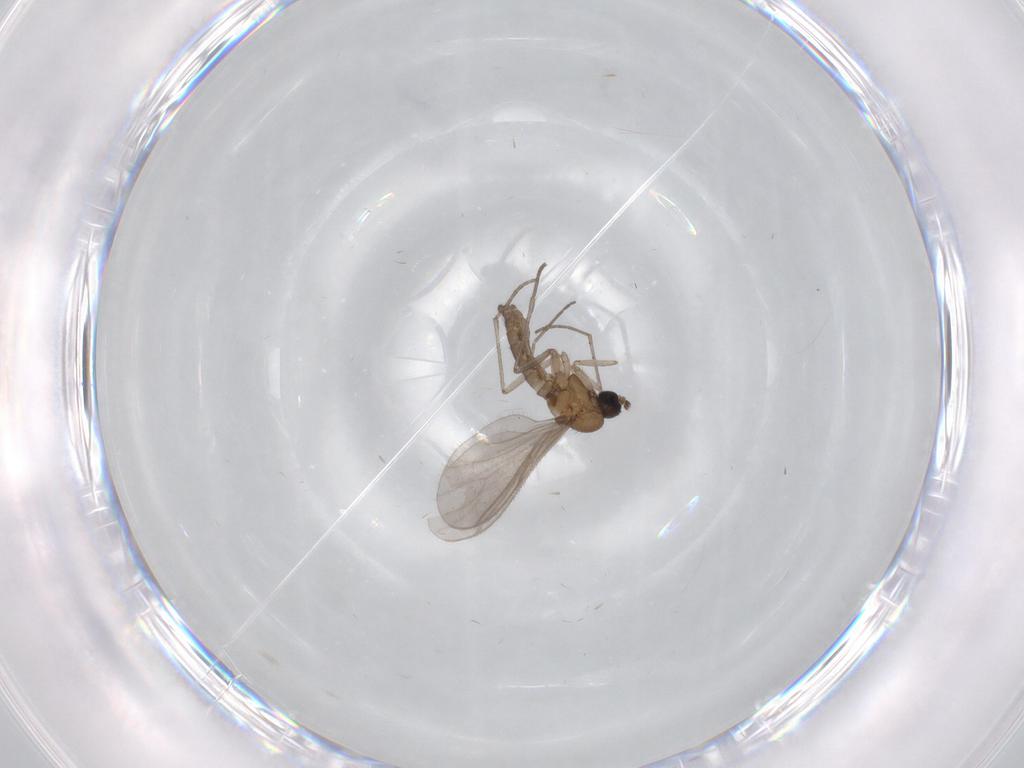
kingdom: Animalia
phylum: Arthropoda
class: Insecta
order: Diptera
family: Sciaridae
